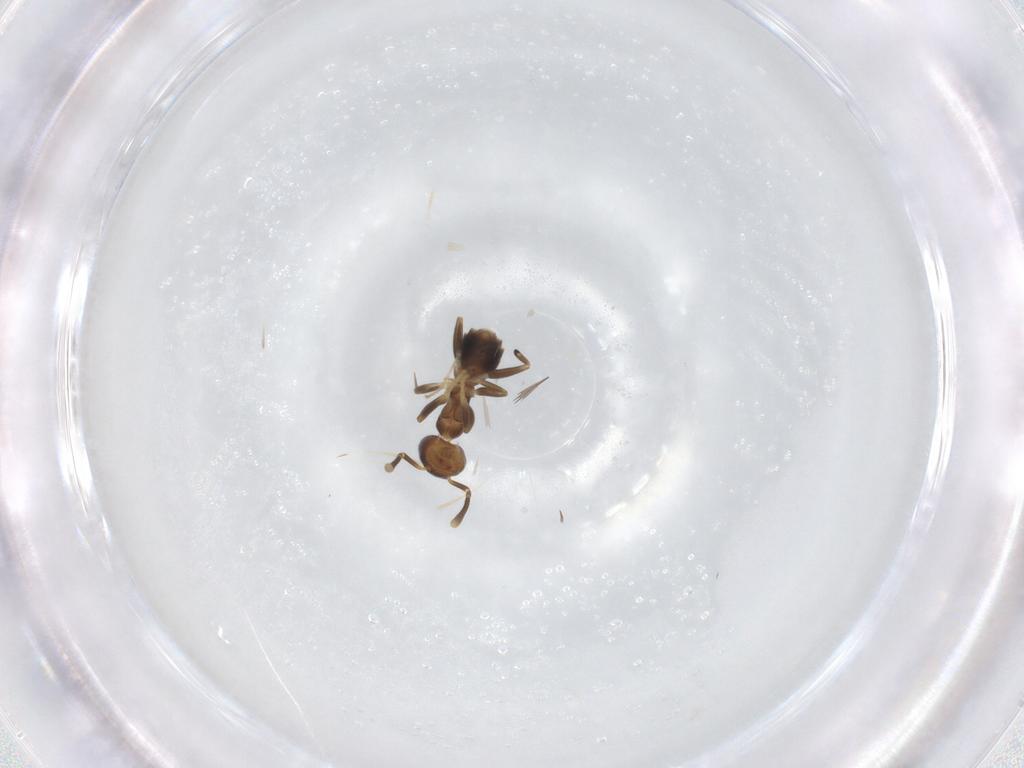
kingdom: Animalia
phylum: Arthropoda
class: Insecta
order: Hymenoptera
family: Formicidae
